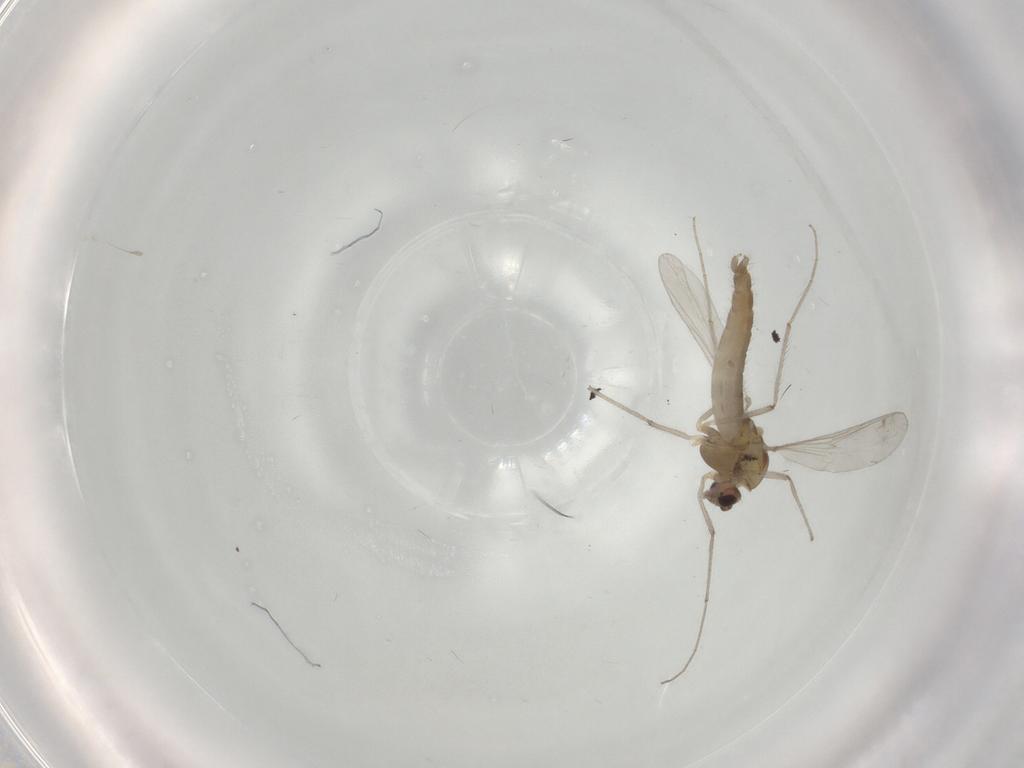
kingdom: Animalia
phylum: Arthropoda
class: Insecta
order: Diptera
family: Chironomidae
